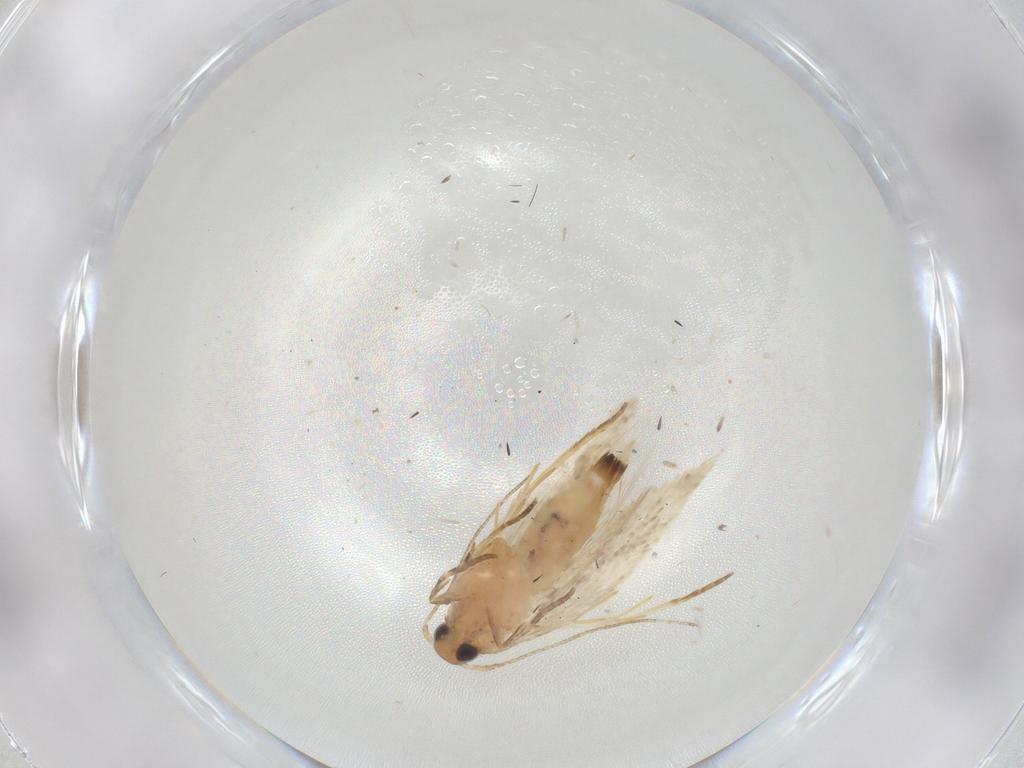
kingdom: Animalia
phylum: Arthropoda
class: Insecta
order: Lepidoptera
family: Gelechiidae
